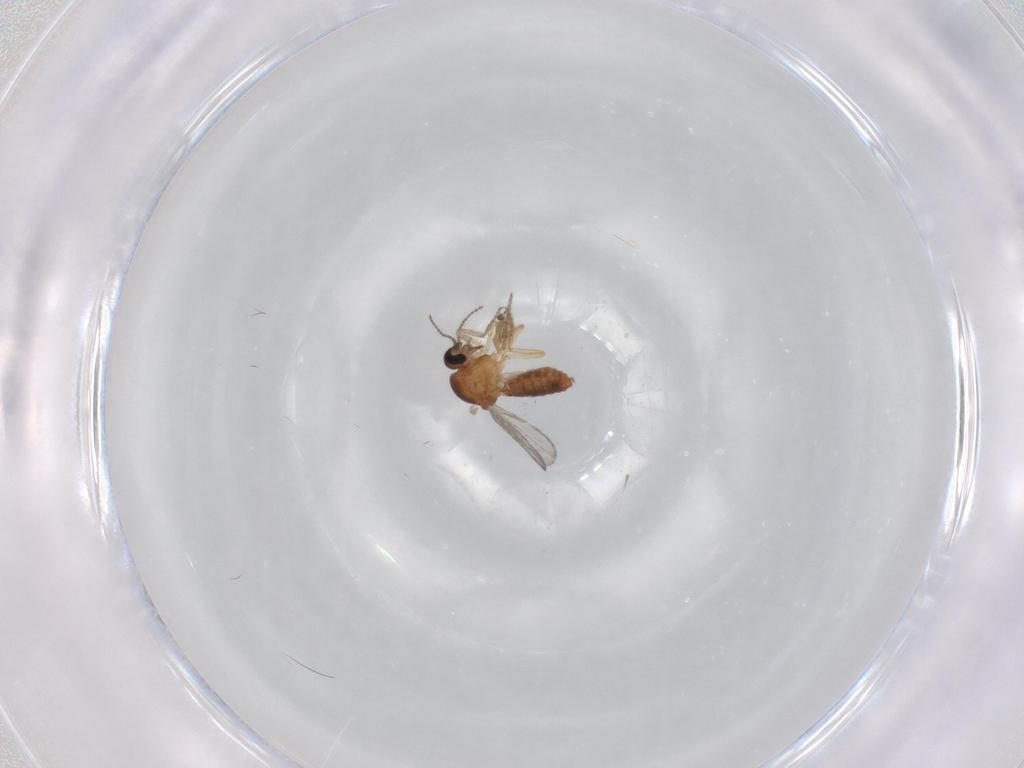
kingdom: Animalia
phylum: Arthropoda
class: Insecta
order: Diptera
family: Ceratopogonidae
